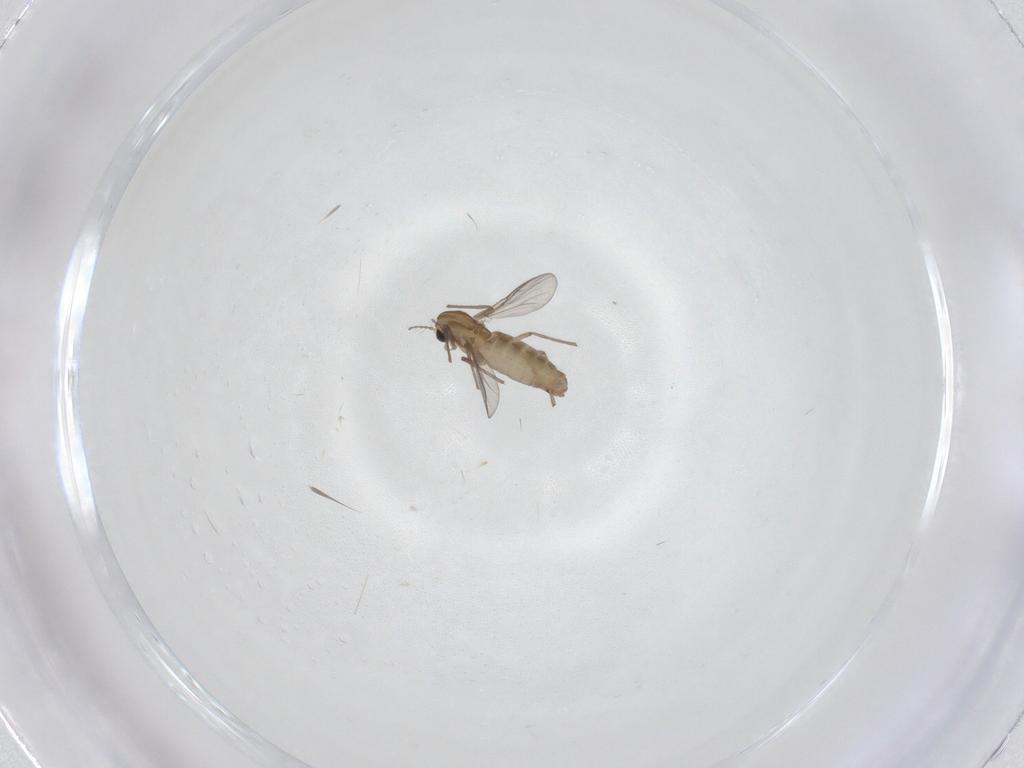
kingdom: Animalia
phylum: Arthropoda
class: Insecta
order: Diptera
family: Chironomidae
